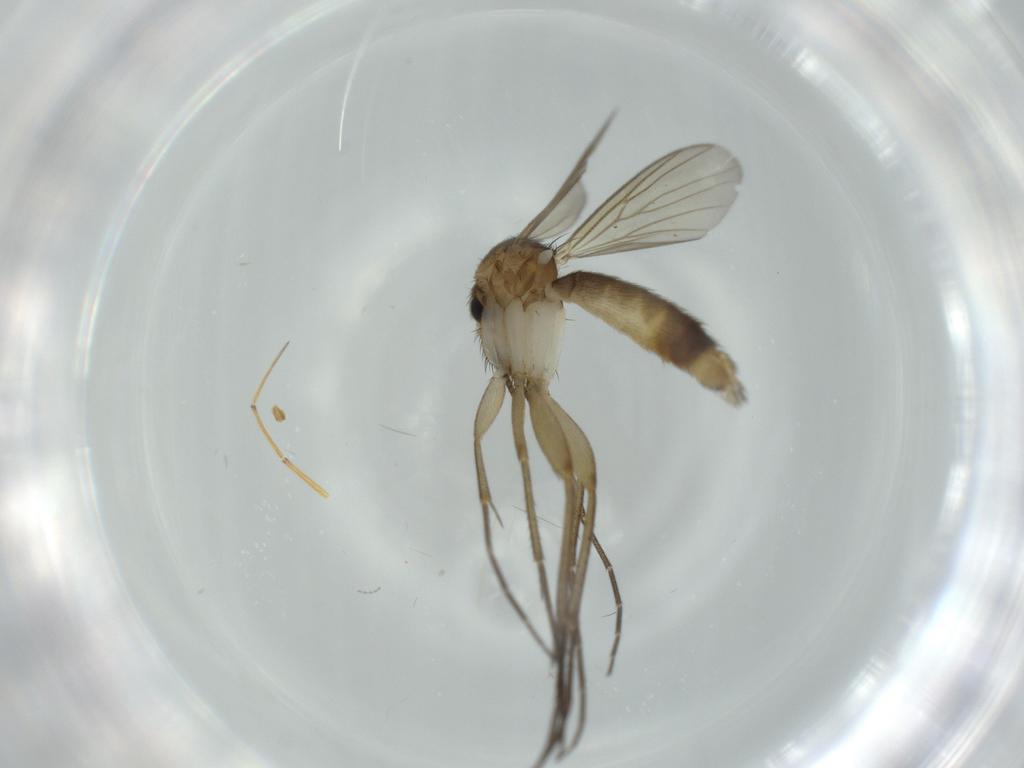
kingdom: Animalia
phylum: Arthropoda
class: Insecta
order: Diptera
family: Mycetophilidae
